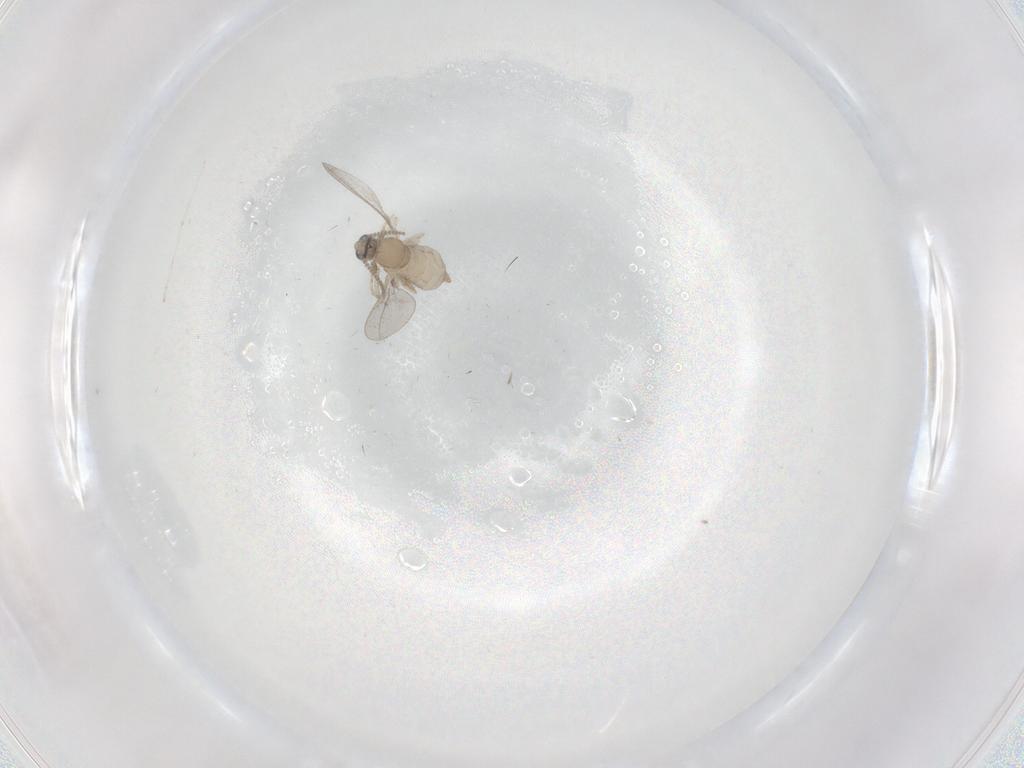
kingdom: Animalia
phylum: Arthropoda
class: Insecta
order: Diptera
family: Cecidomyiidae
